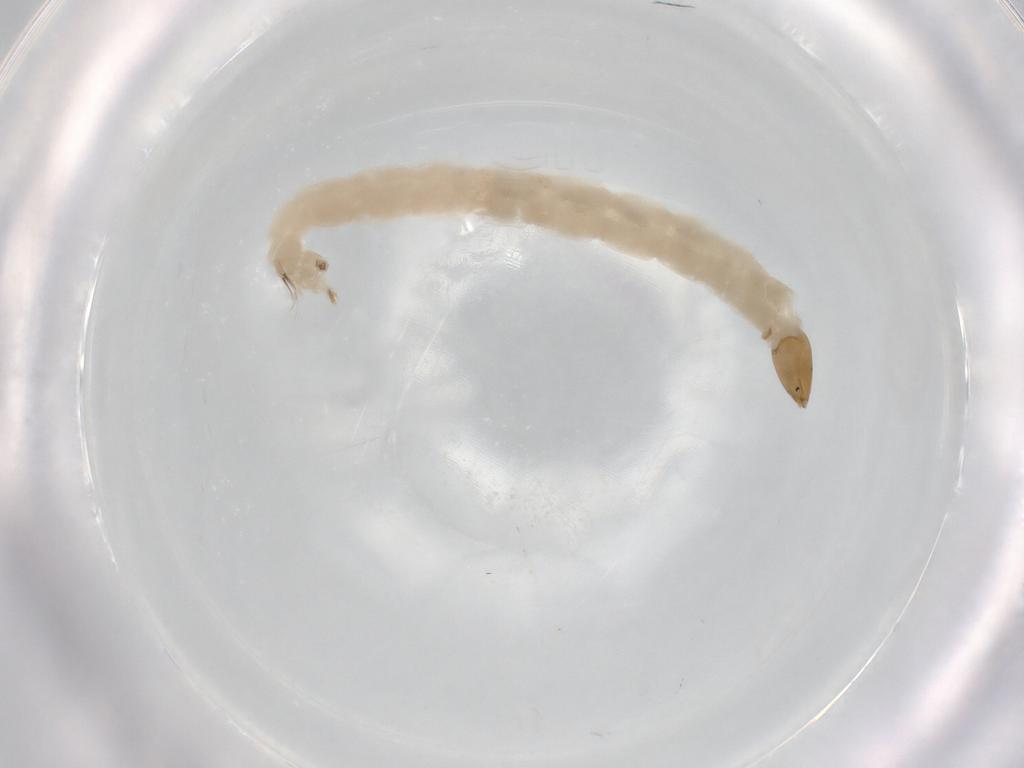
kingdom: Animalia
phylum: Arthropoda
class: Insecta
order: Diptera
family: Chironomidae
